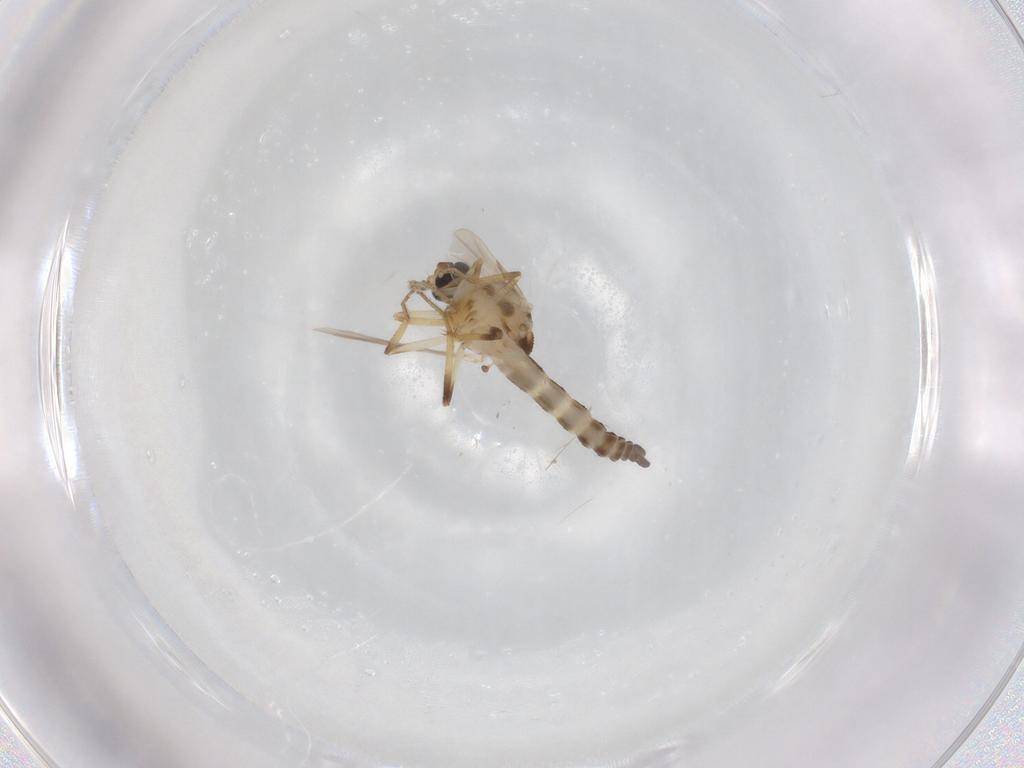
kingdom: Animalia
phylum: Arthropoda
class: Insecta
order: Diptera
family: Ceratopogonidae
